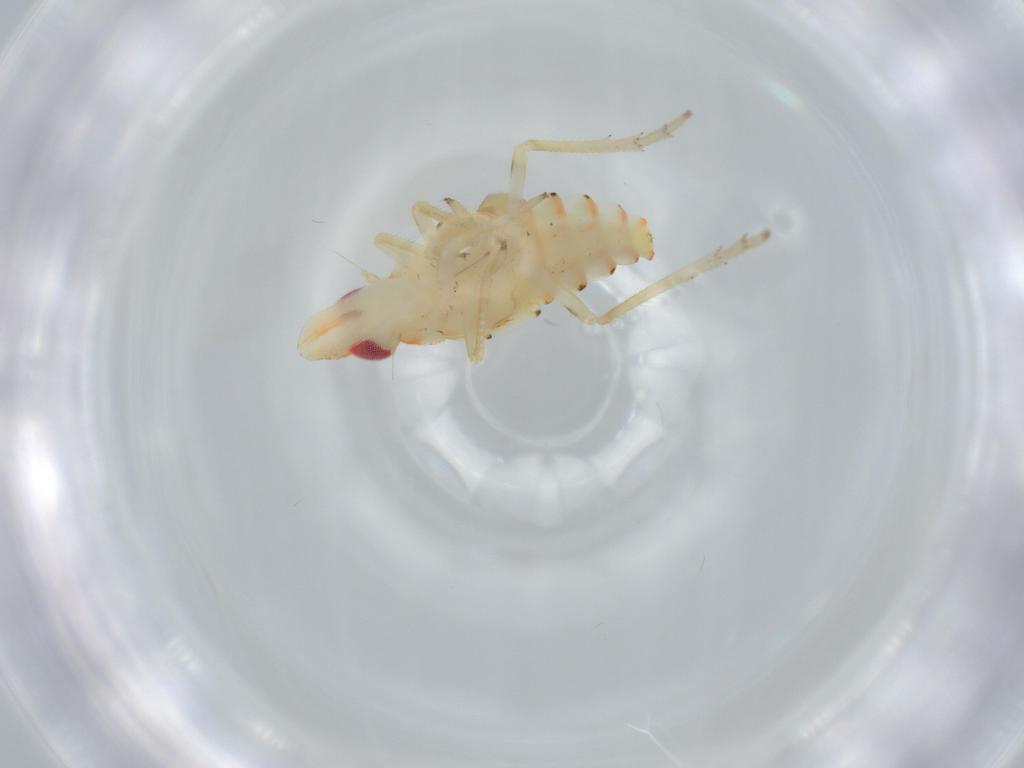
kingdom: Animalia
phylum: Arthropoda
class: Insecta
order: Hemiptera
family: Tropiduchidae
